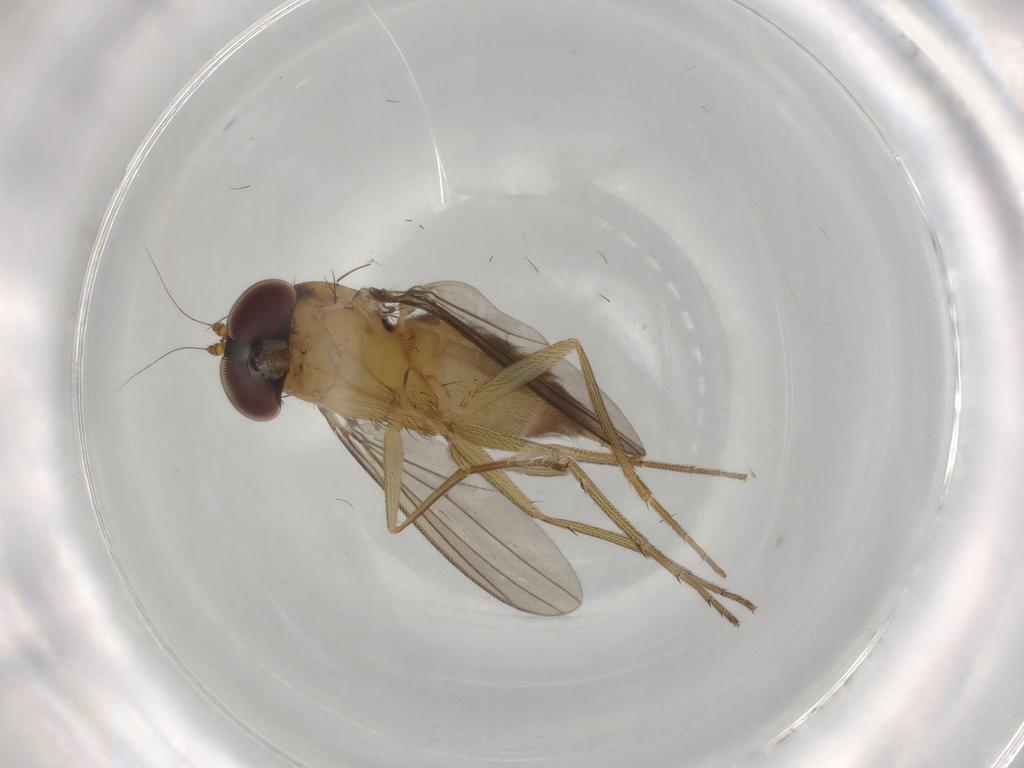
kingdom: Animalia
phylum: Arthropoda
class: Insecta
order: Diptera
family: Dolichopodidae
